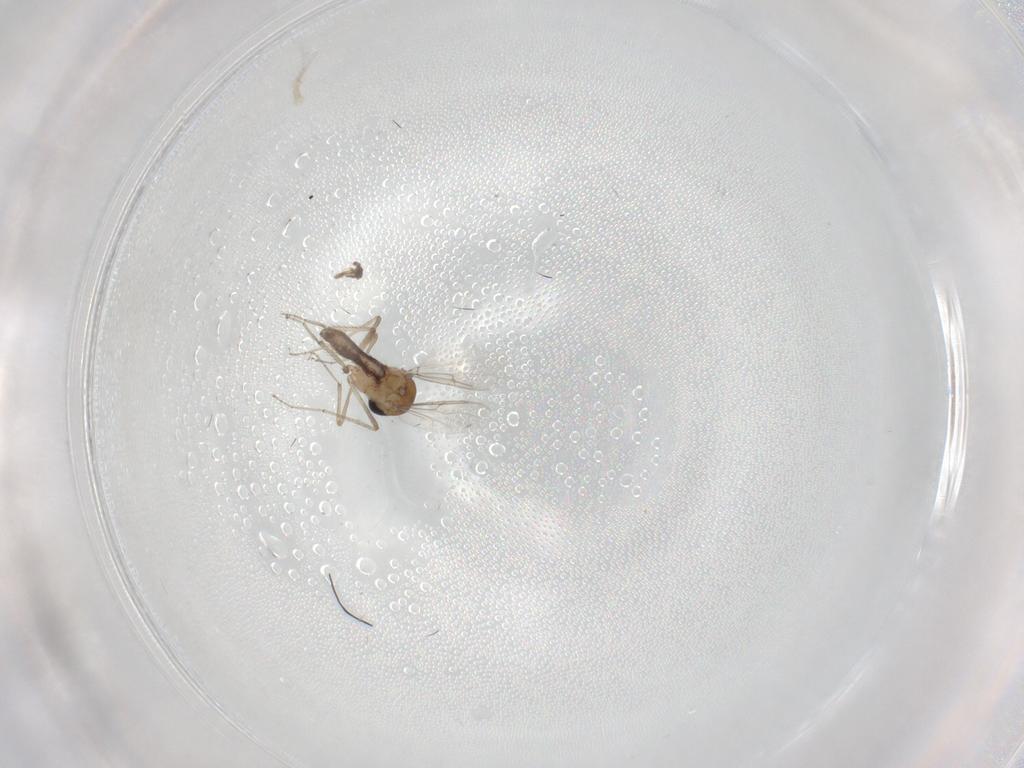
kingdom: Animalia
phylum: Arthropoda
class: Insecta
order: Diptera
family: Ceratopogonidae
